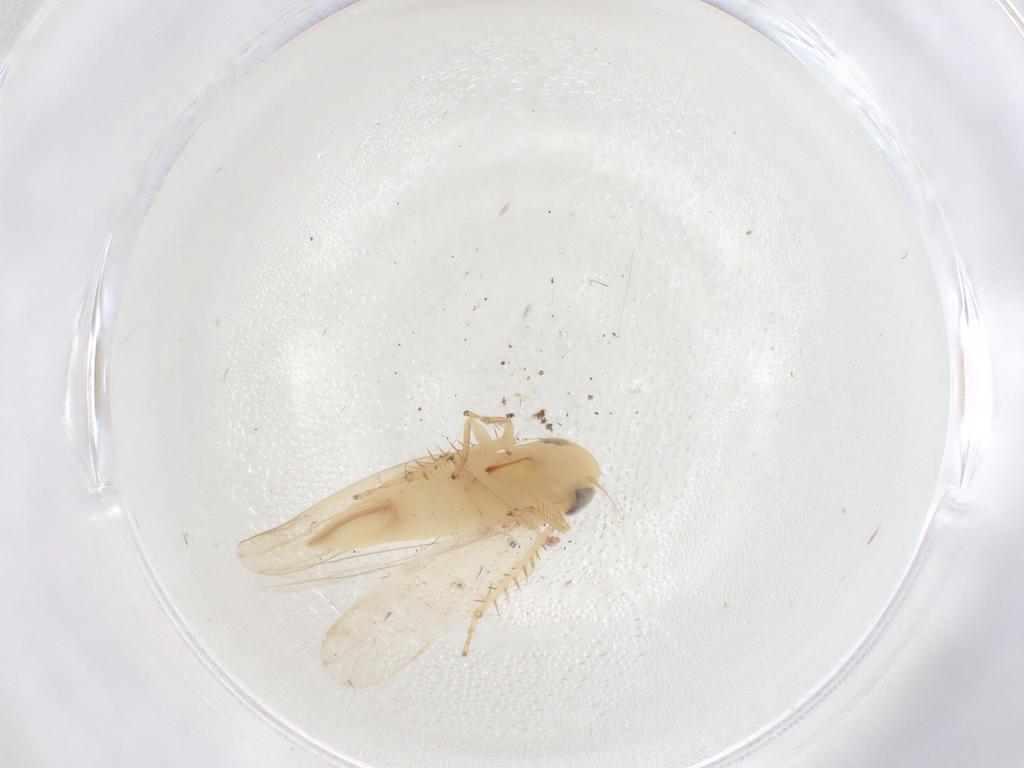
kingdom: Animalia
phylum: Arthropoda
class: Insecta
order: Hemiptera
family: Cicadellidae
